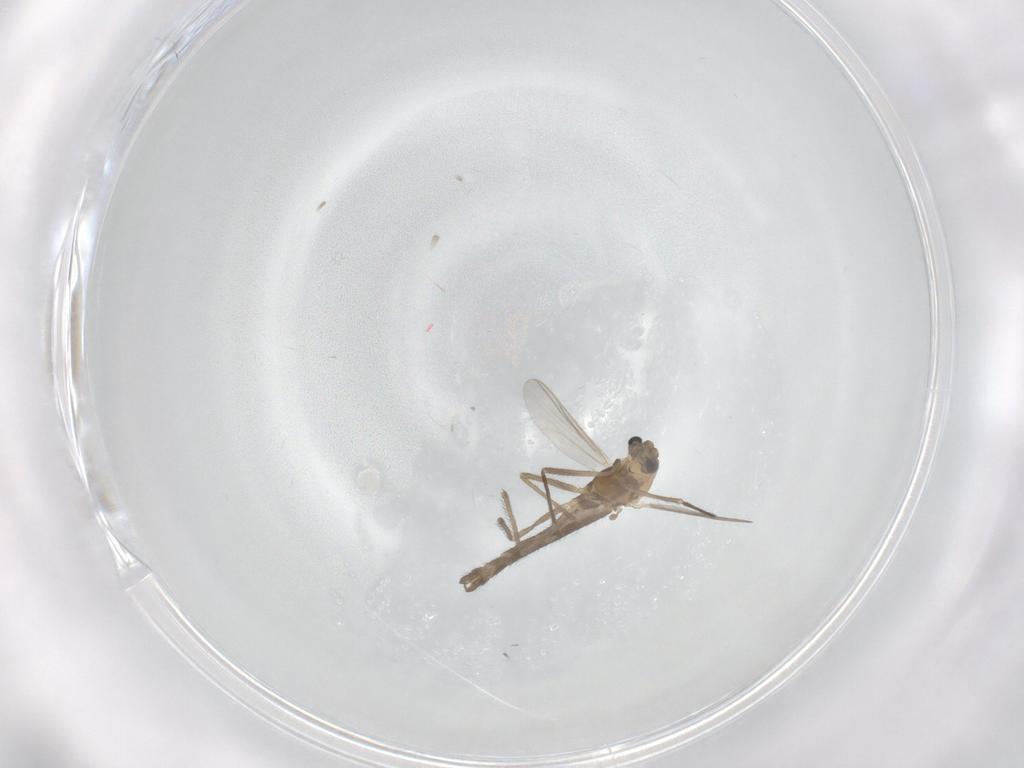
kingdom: Animalia
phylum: Arthropoda
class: Insecta
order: Diptera
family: Chironomidae
